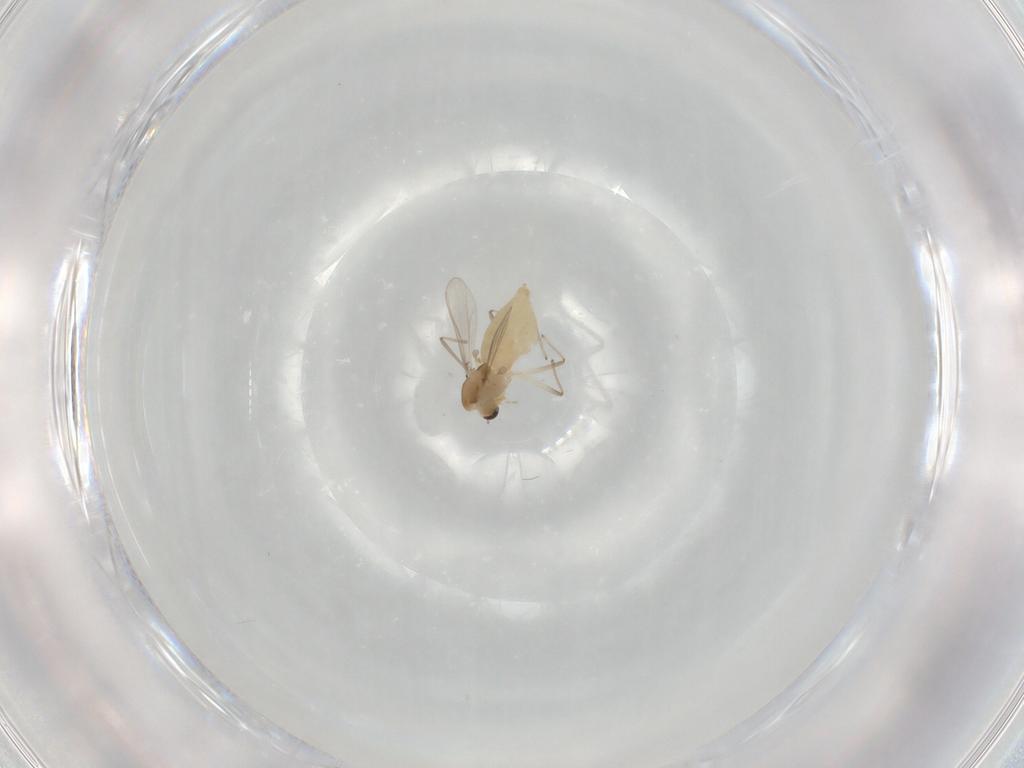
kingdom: Animalia
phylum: Arthropoda
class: Insecta
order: Diptera
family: Chironomidae
